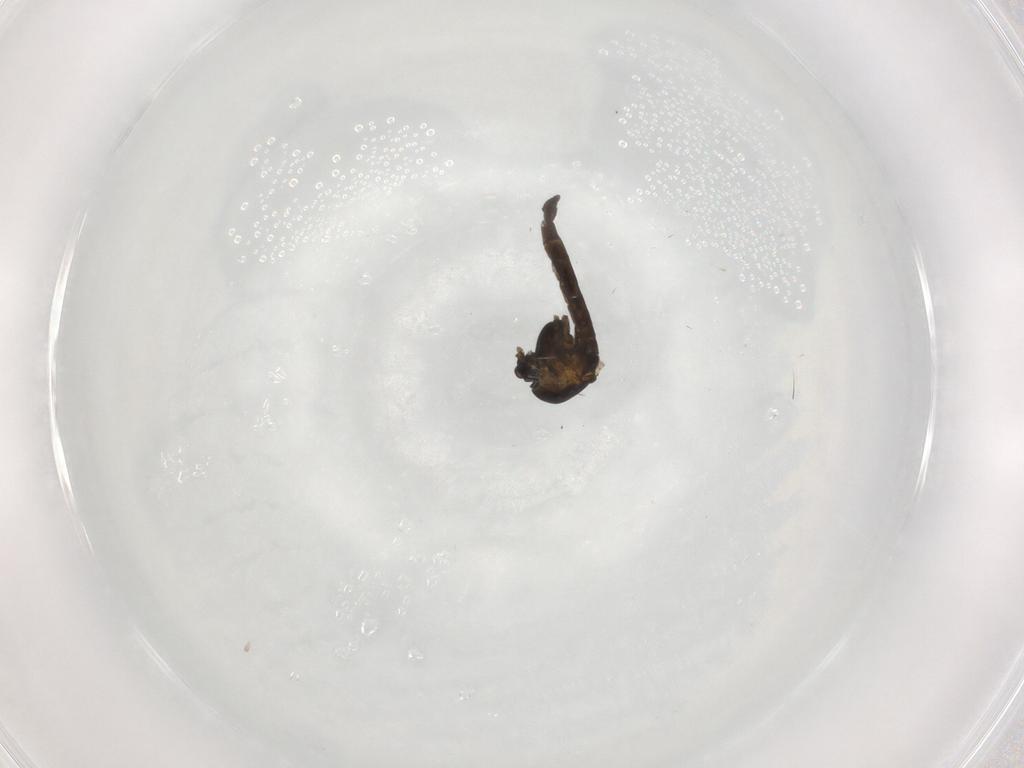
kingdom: Animalia
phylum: Arthropoda
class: Insecta
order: Diptera
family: Chironomidae
